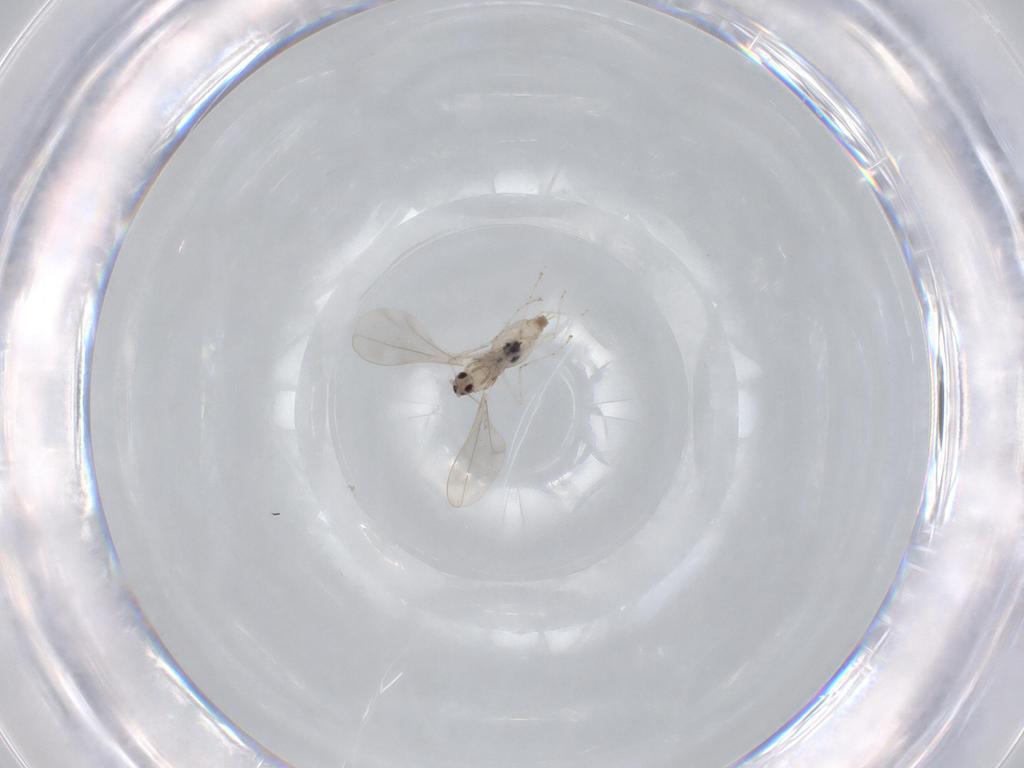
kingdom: Animalia
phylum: Arthropoda
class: Insecta
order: Diptera
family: Cecidomyiidae
